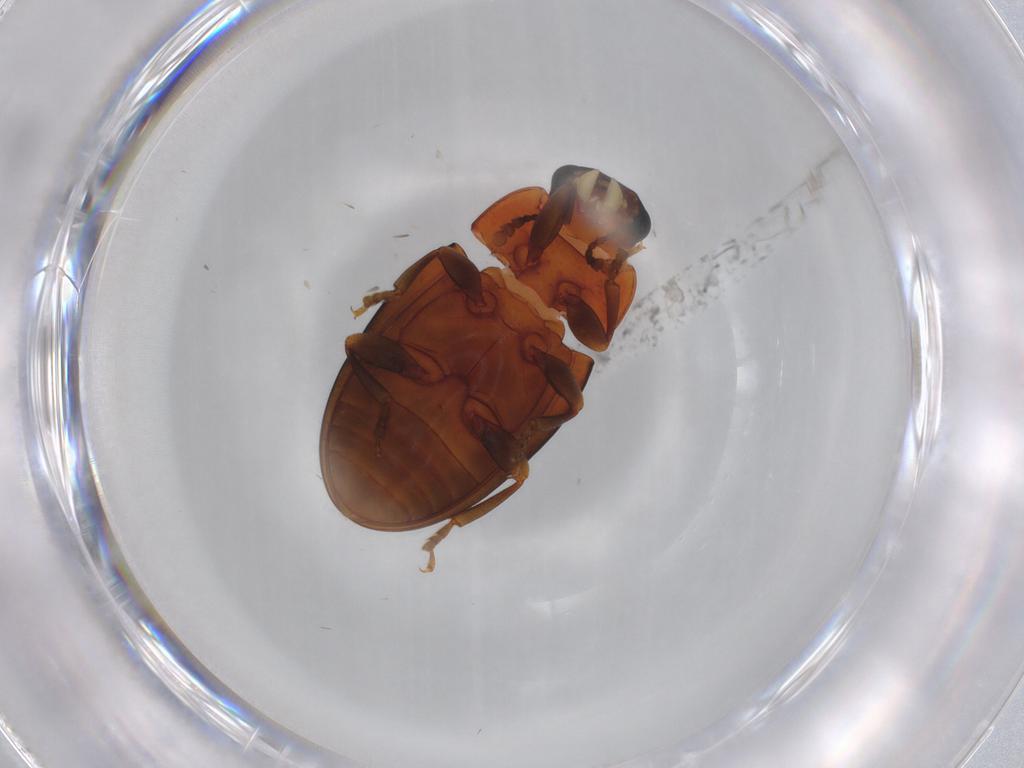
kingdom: Animalia
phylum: Arthropoda
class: Insecta
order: Coleoptera
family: Erotylidae
